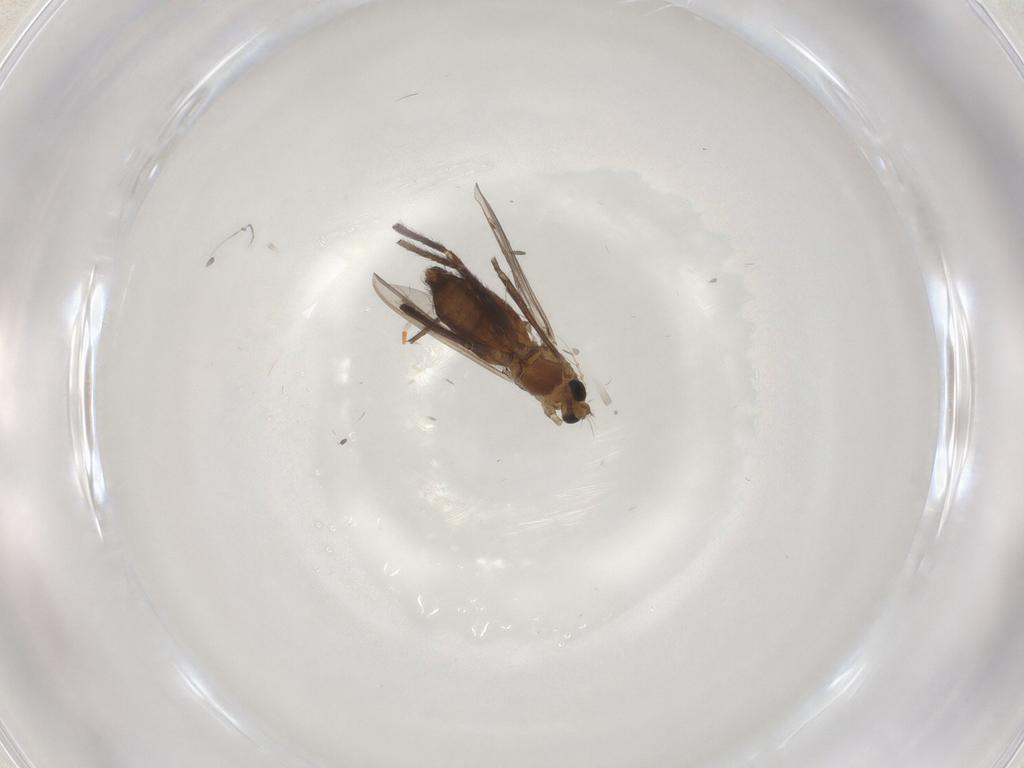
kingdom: Animalia
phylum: Arthropoda
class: Insecta
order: Diptera
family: Chironomidae
